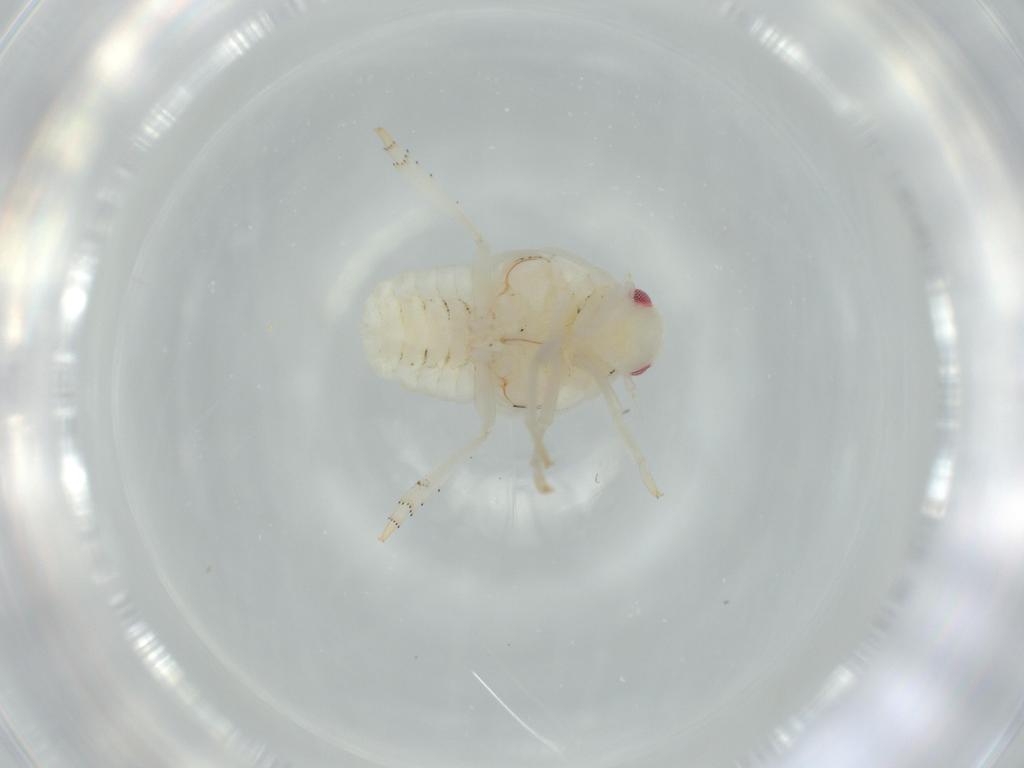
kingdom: Animalia
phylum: Arthropoda
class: Insecta
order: Hemiptera
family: Flatidae
